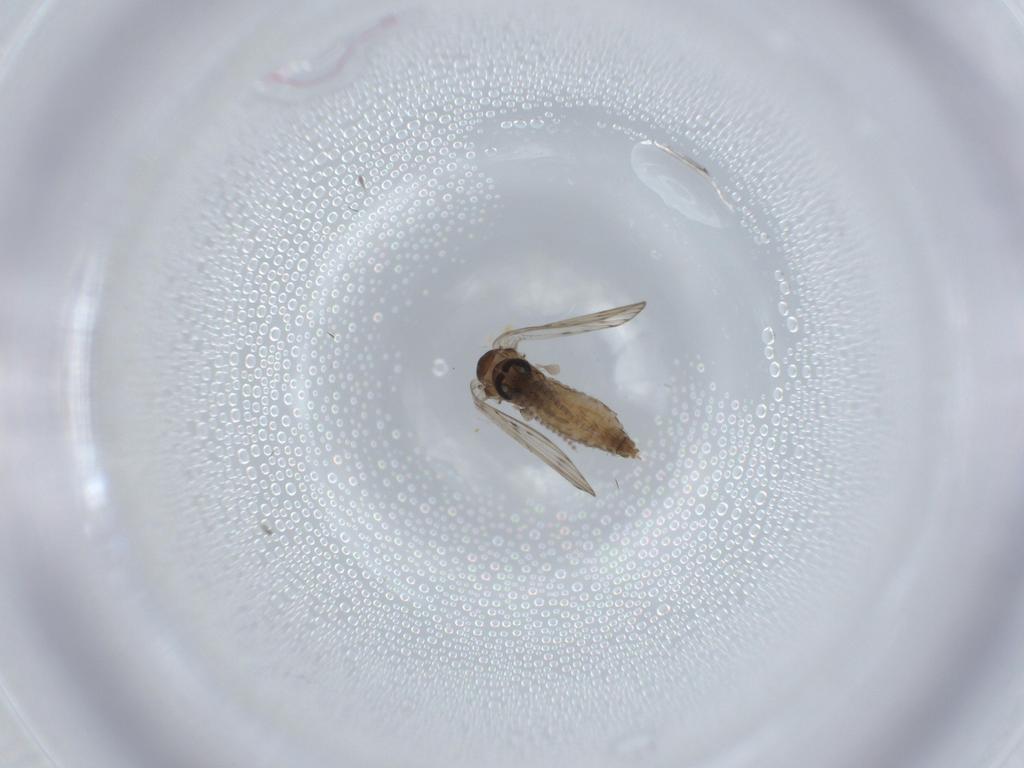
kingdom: Animalia
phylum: Arthropoda
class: Insecta
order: Diptera
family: Psychodidae
